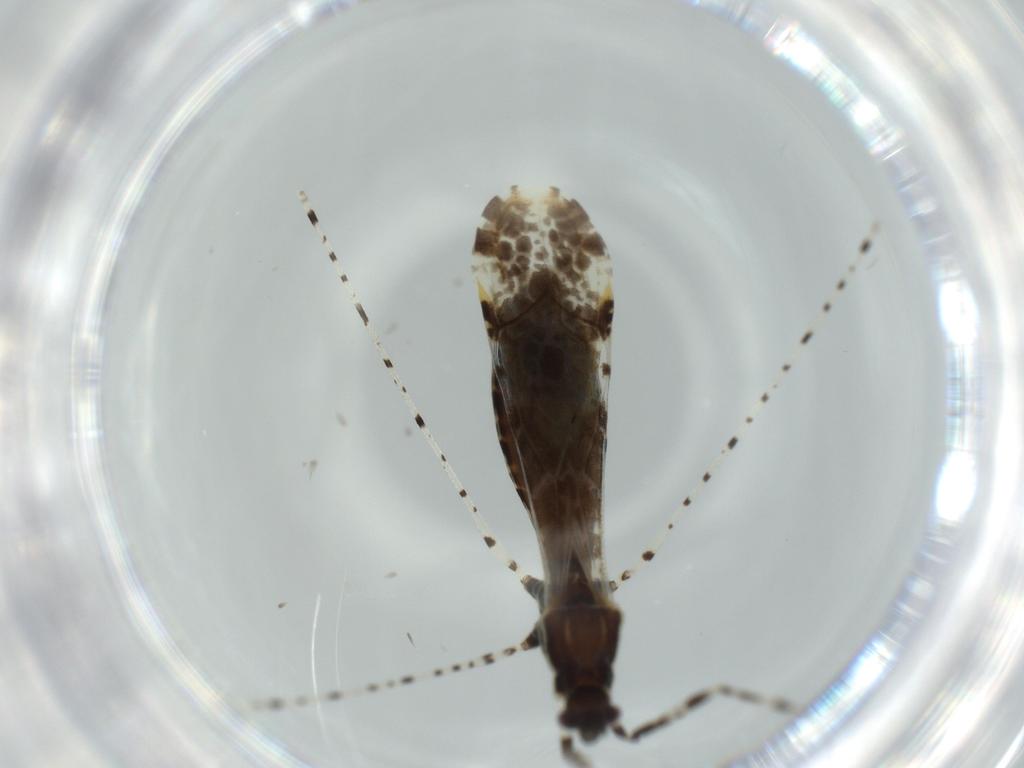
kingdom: Animalia
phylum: Arthropoda
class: Insecta
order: Hemiptera
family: Reduviidae
